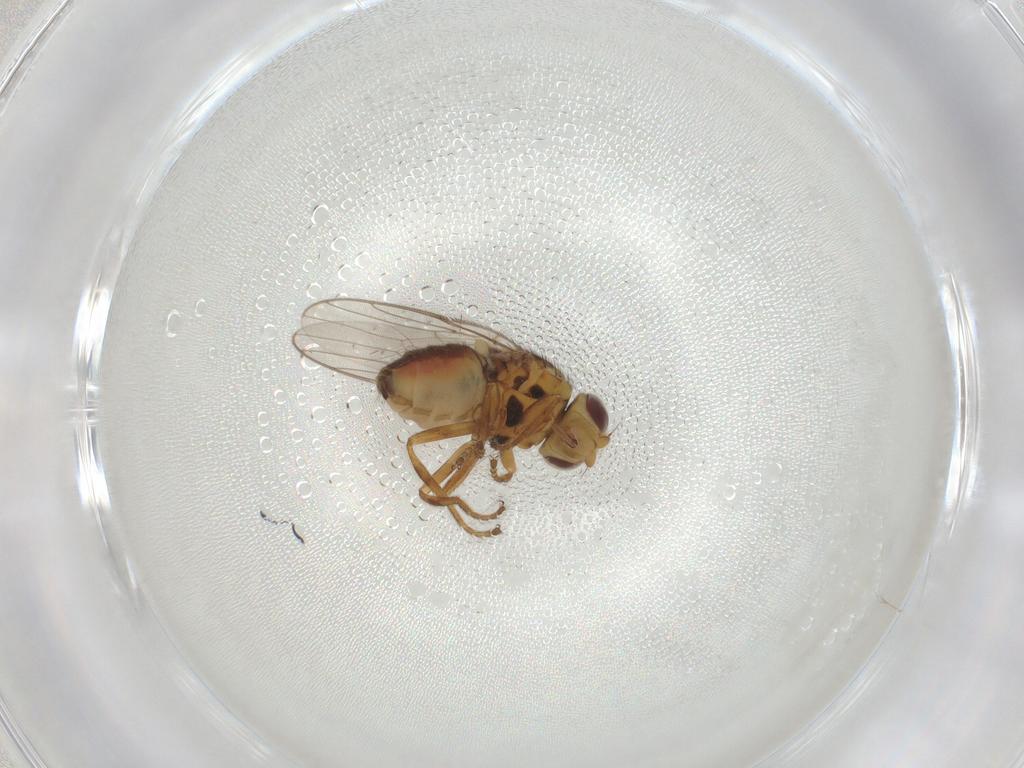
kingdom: Animalia
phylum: Arthropoda
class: Insecta
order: Diptera
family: Chloropidae
